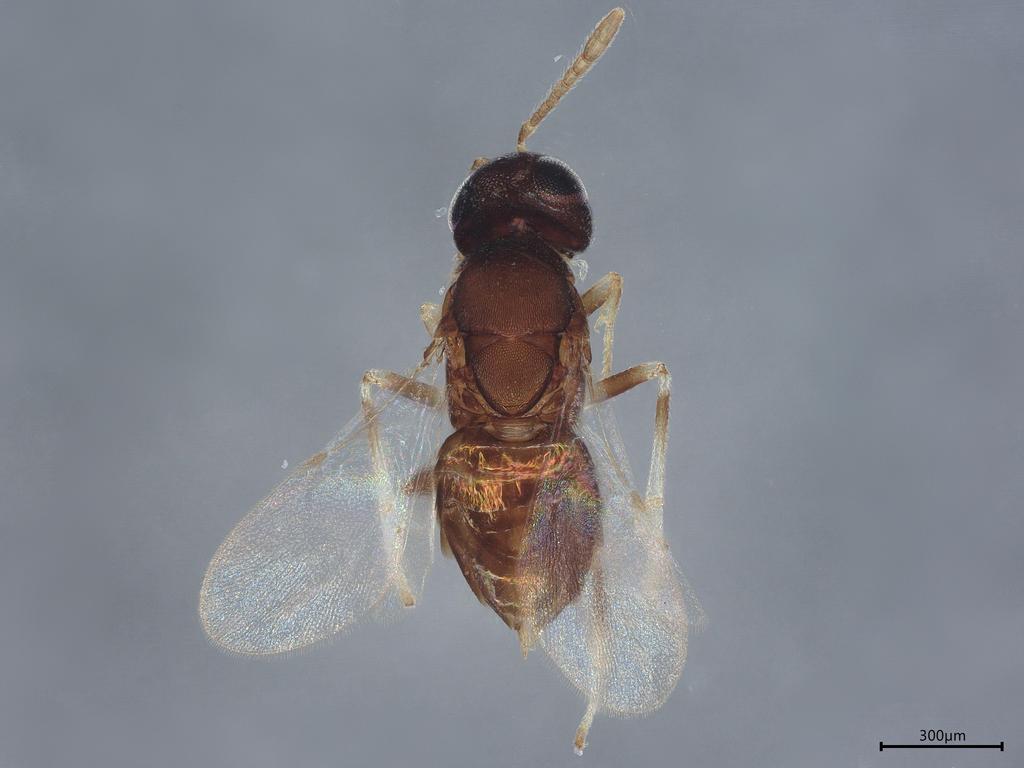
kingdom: Animalia
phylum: Arthropoda
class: Insecta
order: Hymenoptera
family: Encyrtidae
